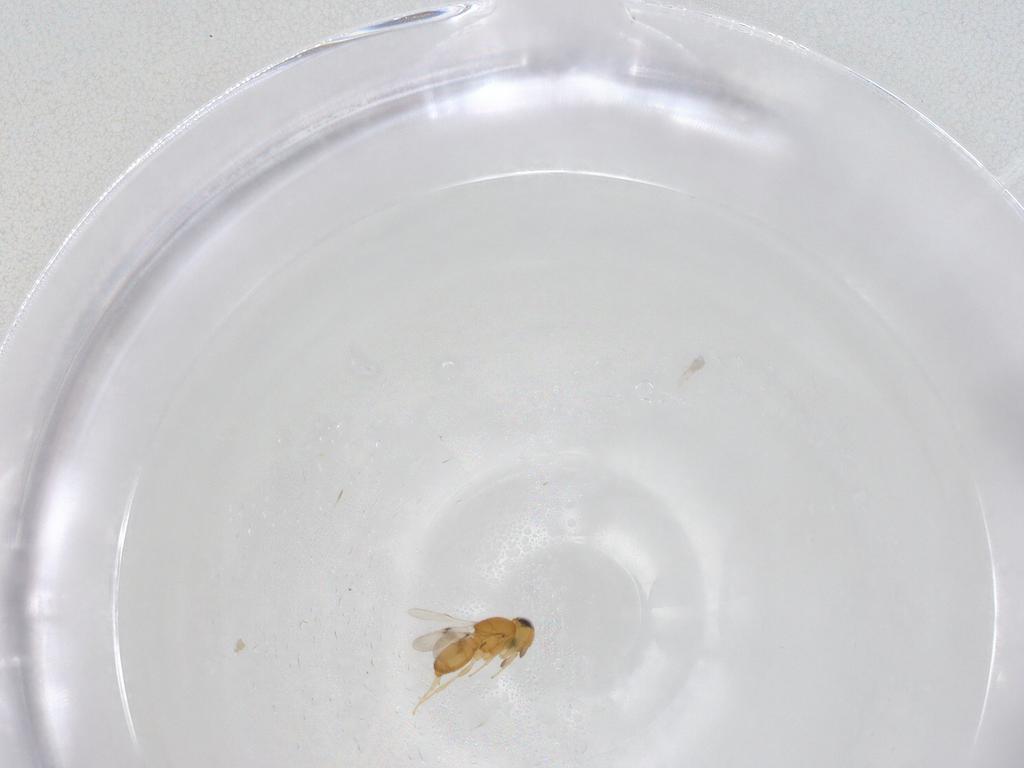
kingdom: Animalia
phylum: Arthropoda
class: Insecta
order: Hymenoptera
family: Scelionidae
